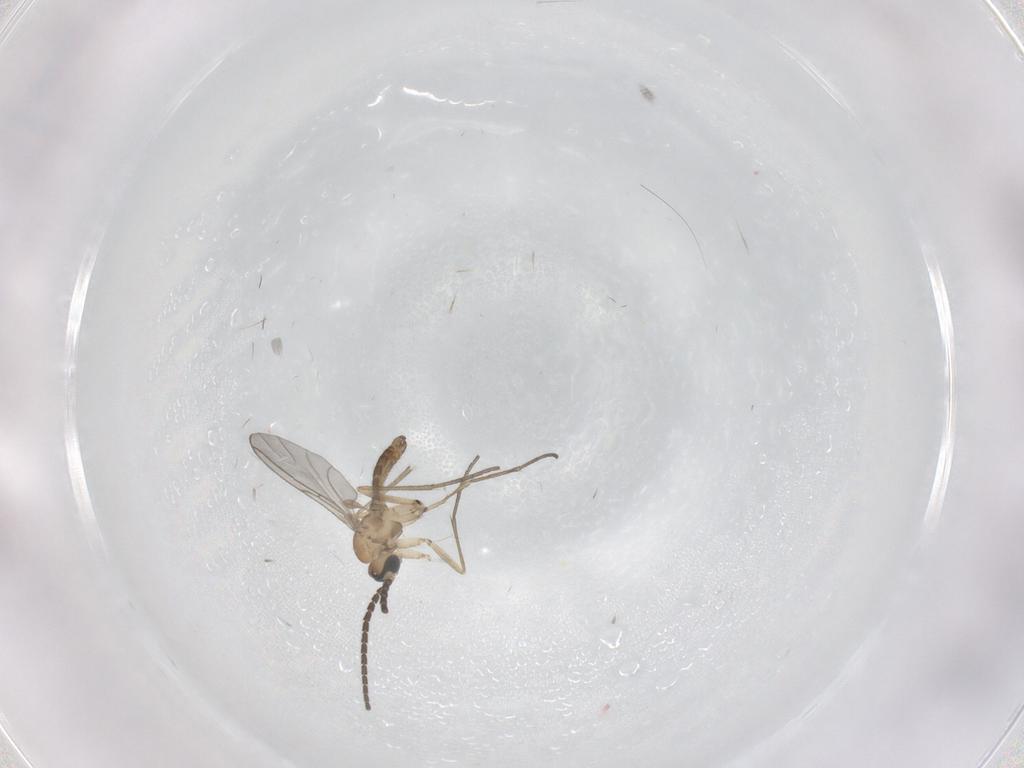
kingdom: Animalia
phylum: Arthropoda
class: Insecta
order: Diptera
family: Sciaridae
